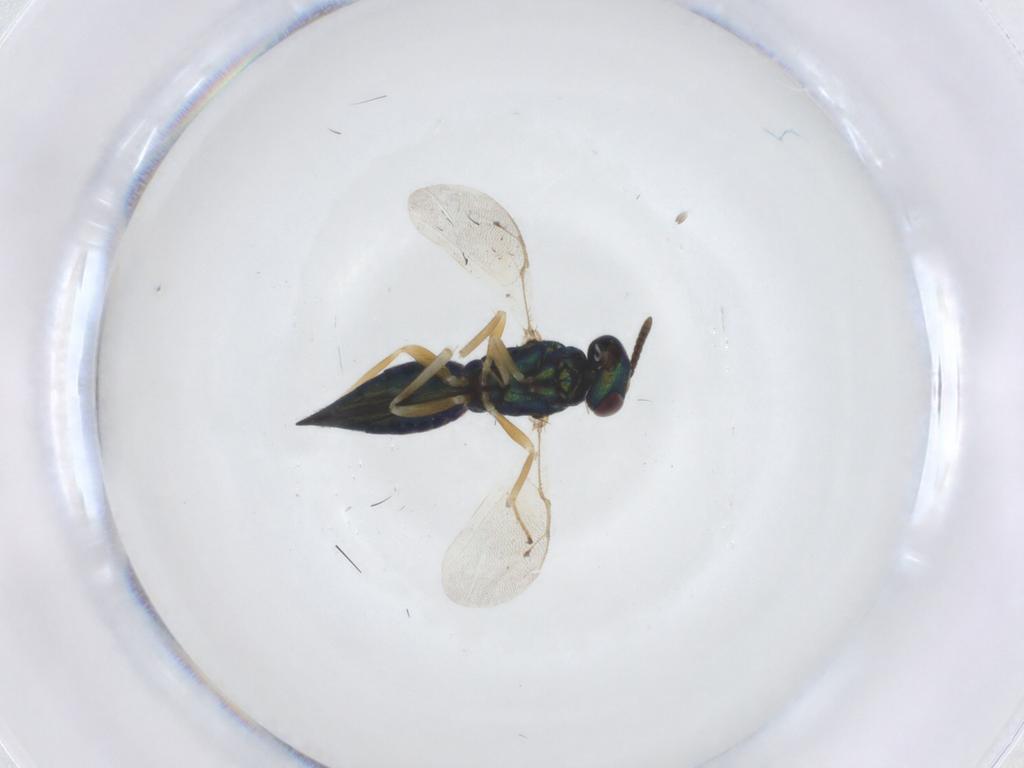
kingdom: Animalia
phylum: Arthropoda
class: Insecta
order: Hymenoptera
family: Pteromalidae
